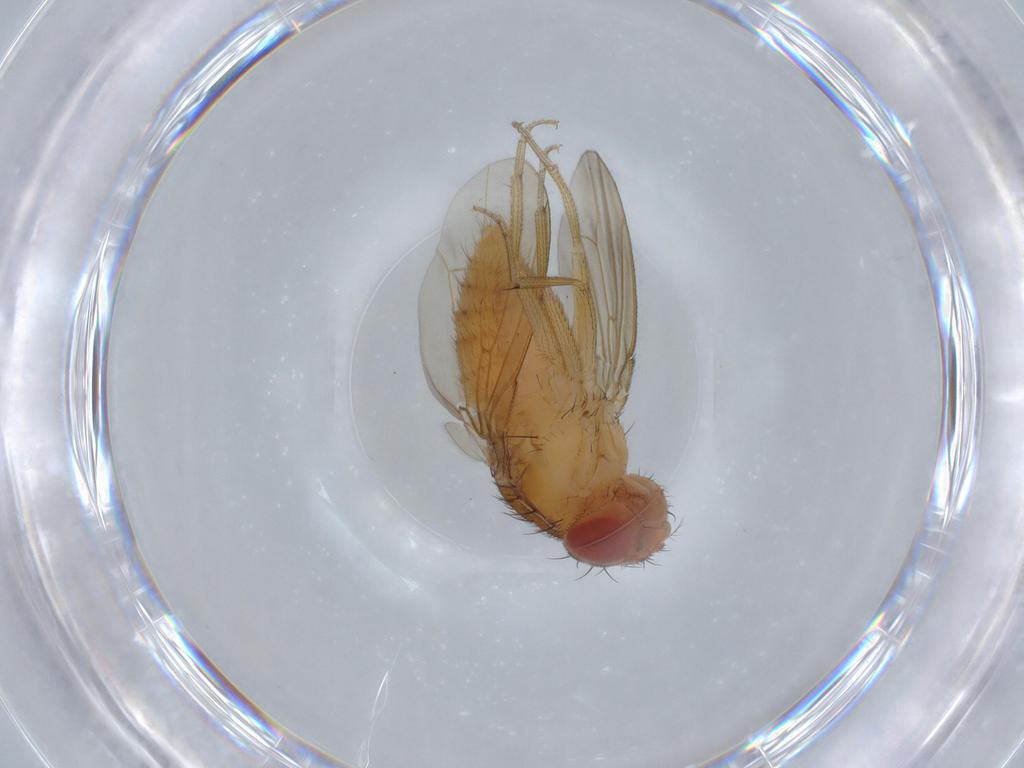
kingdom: Animalia
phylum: Arthropoda
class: Insecta
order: Diptera
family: Drosophilidae
